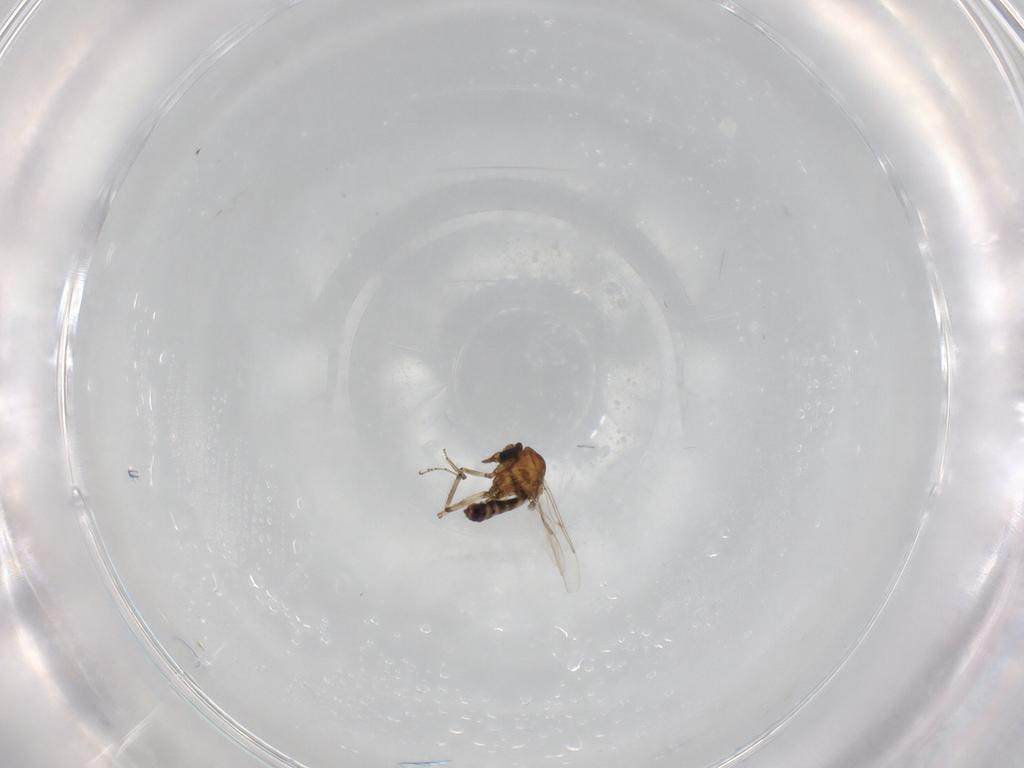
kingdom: Animalia
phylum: Arthropoda
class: Insecta
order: Diptera
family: Ceratopogonidae
